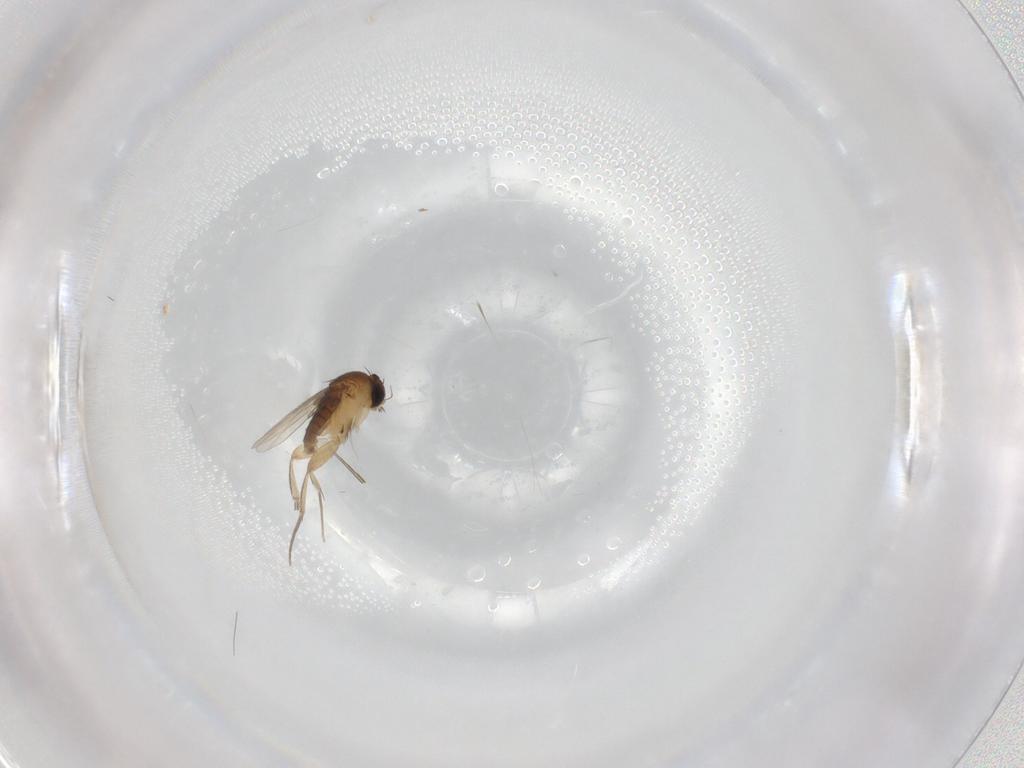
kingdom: Animalia
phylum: Arthropoda
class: Insecta
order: Diptera
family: Phoridae
